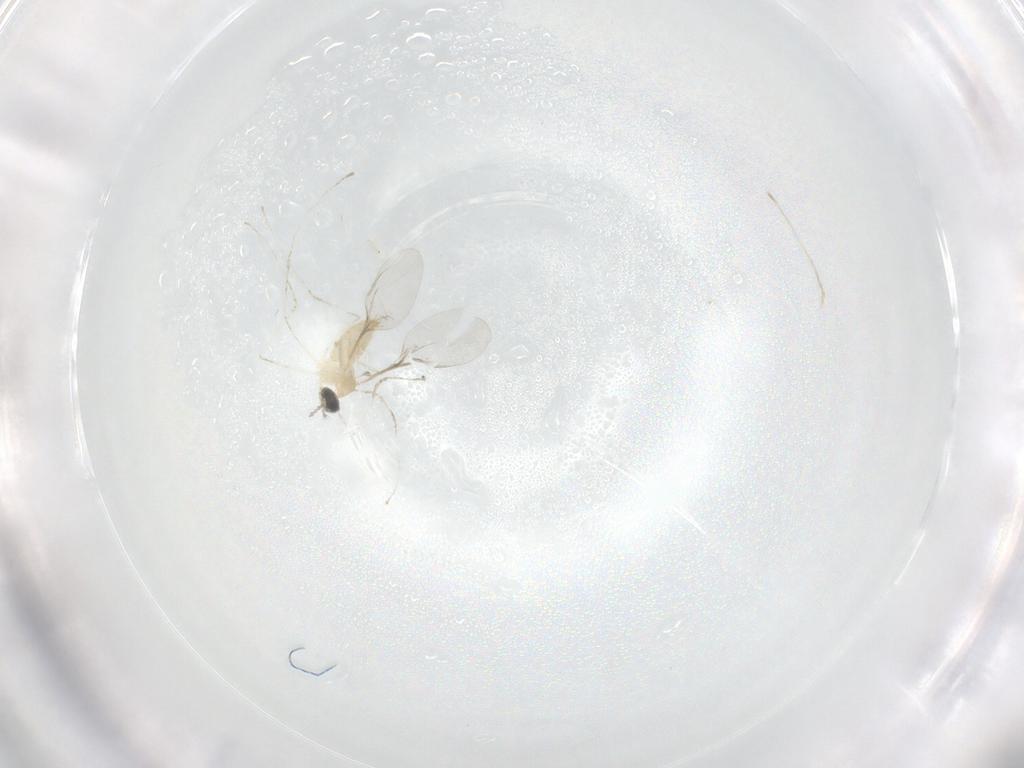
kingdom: Animalia
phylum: Arthropoda
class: Insecta
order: Diptera
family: Cecidomyiidae
